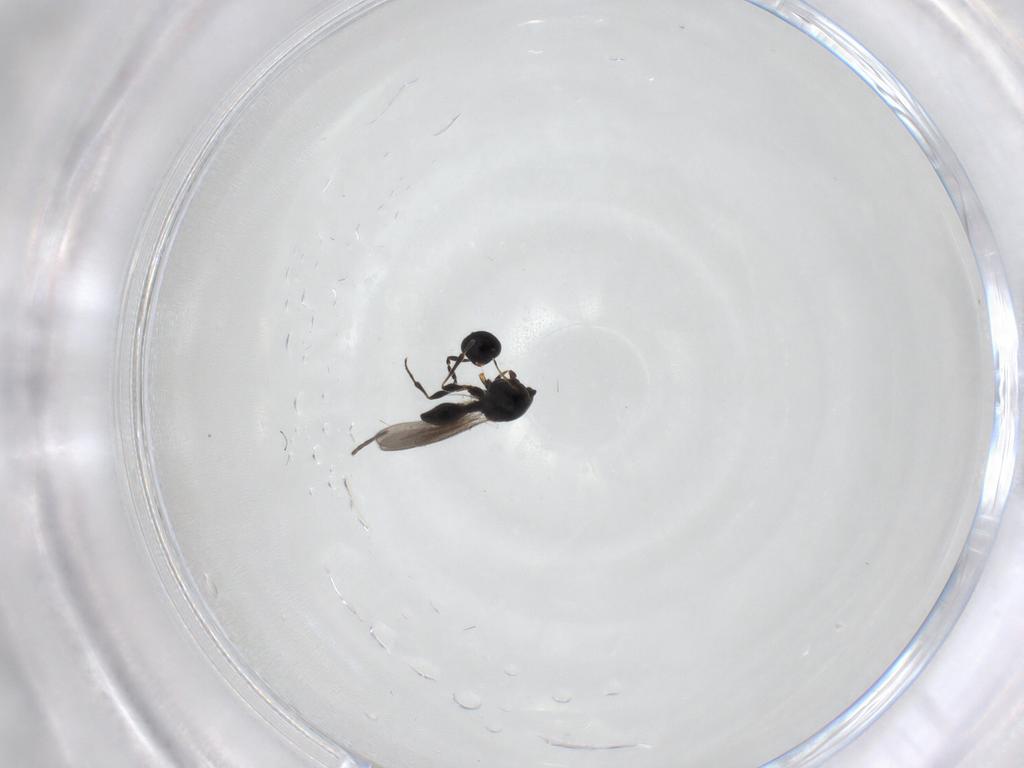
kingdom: Animalia
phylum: Arthropoda
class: Insecta
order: Hymenoptera
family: Platygastridae
